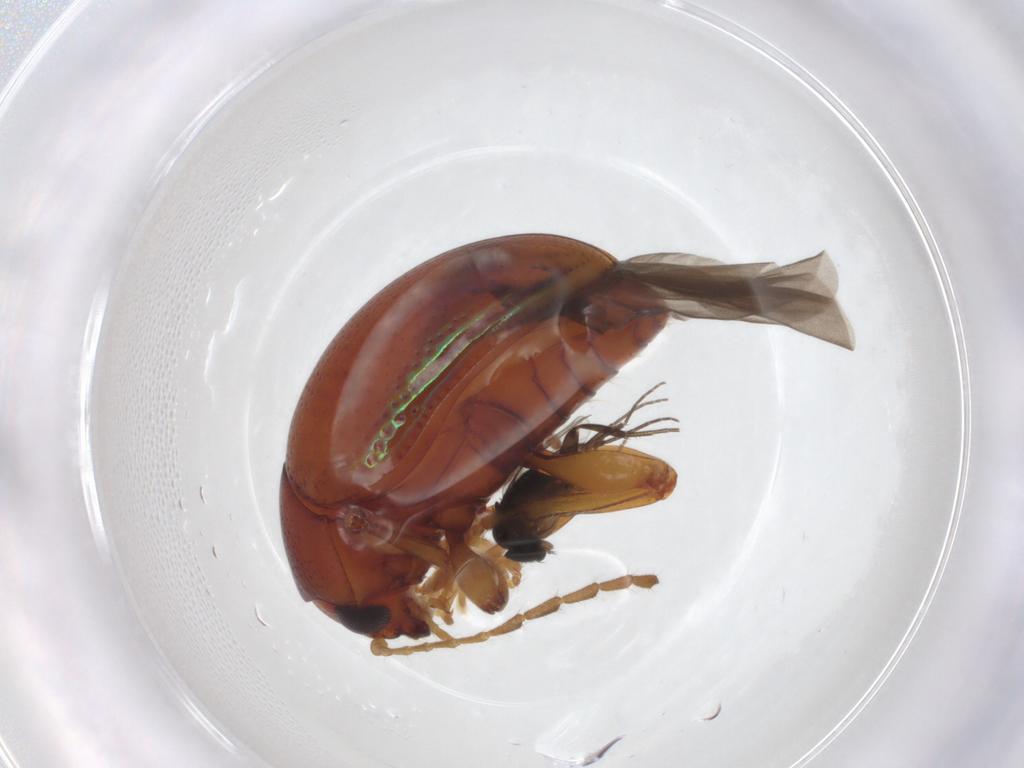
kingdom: Animalia
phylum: Arthropoda
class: Insecta
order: Coleoptera
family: Chrysomelidae
